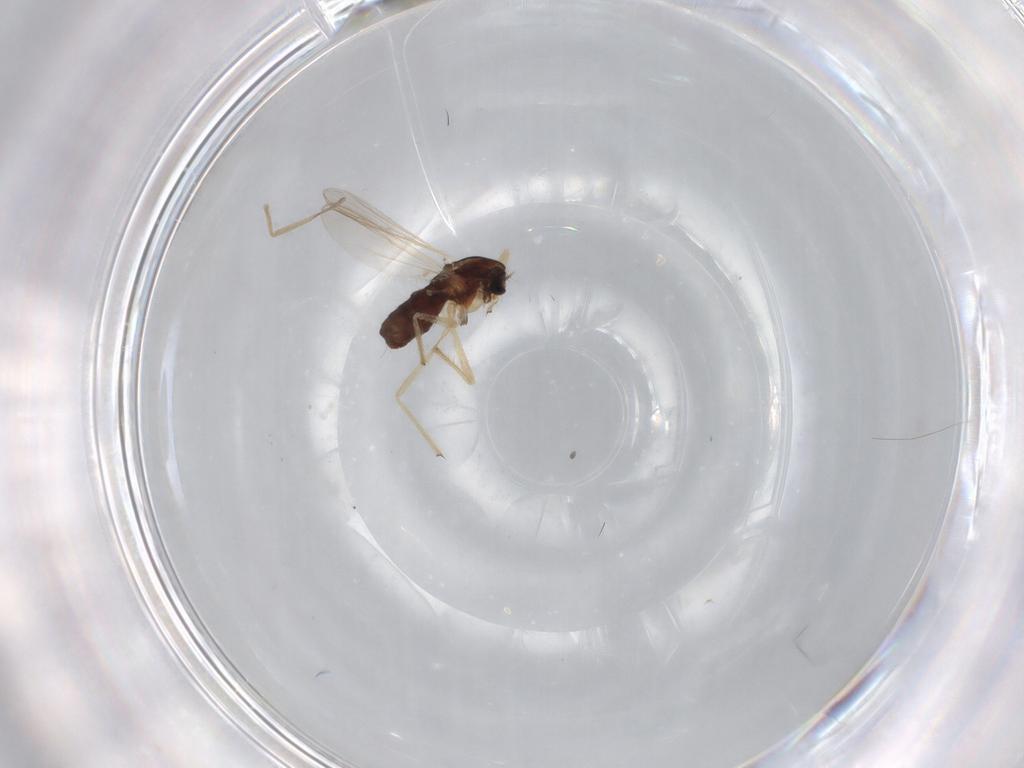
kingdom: Animalia
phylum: Arthropoda
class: Insecta
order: Diptera
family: Chironomidae
